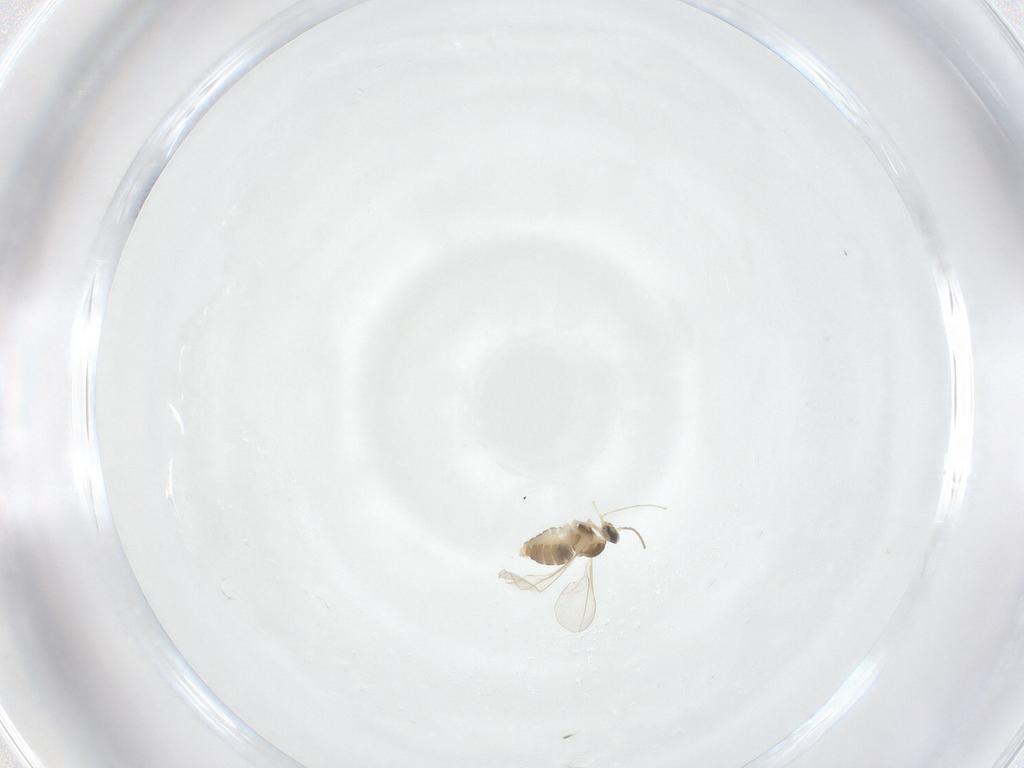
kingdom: Animalia
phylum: Arthropoda
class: Insecta
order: Diptera
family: Cecidomyiidae
